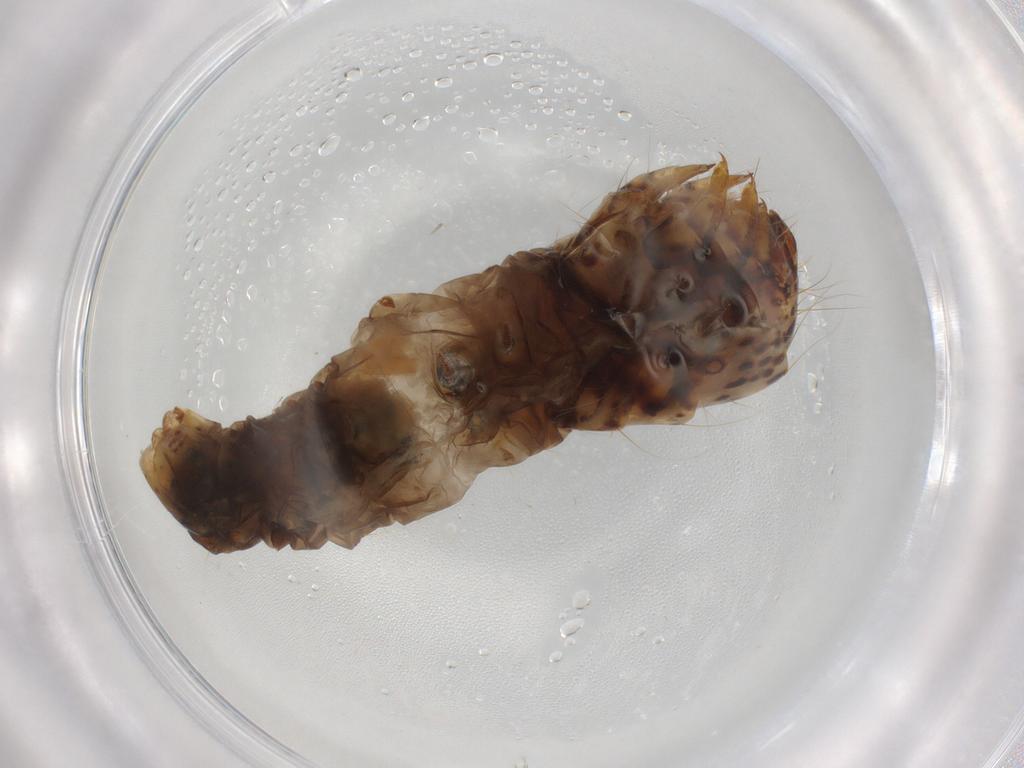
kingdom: Animalia
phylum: Arthropoda
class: Insecta
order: Lepidoptera
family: Psychidae
